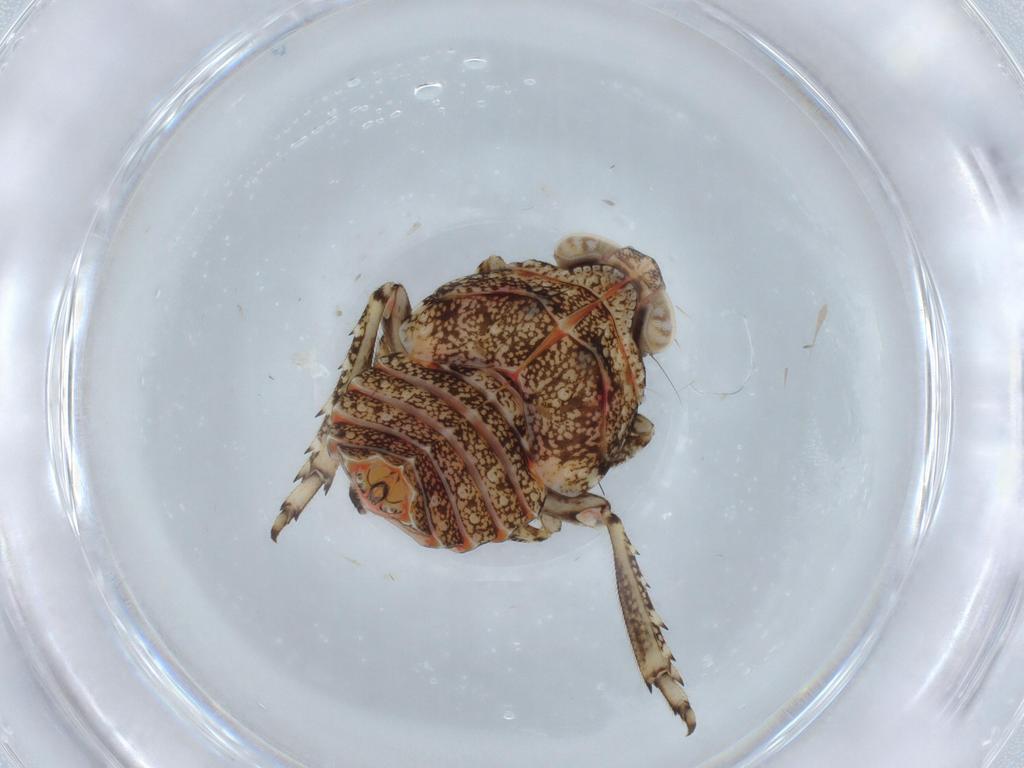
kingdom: Animalia
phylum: Arthropoda
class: Insecta
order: Hemiptera
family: Issidae
